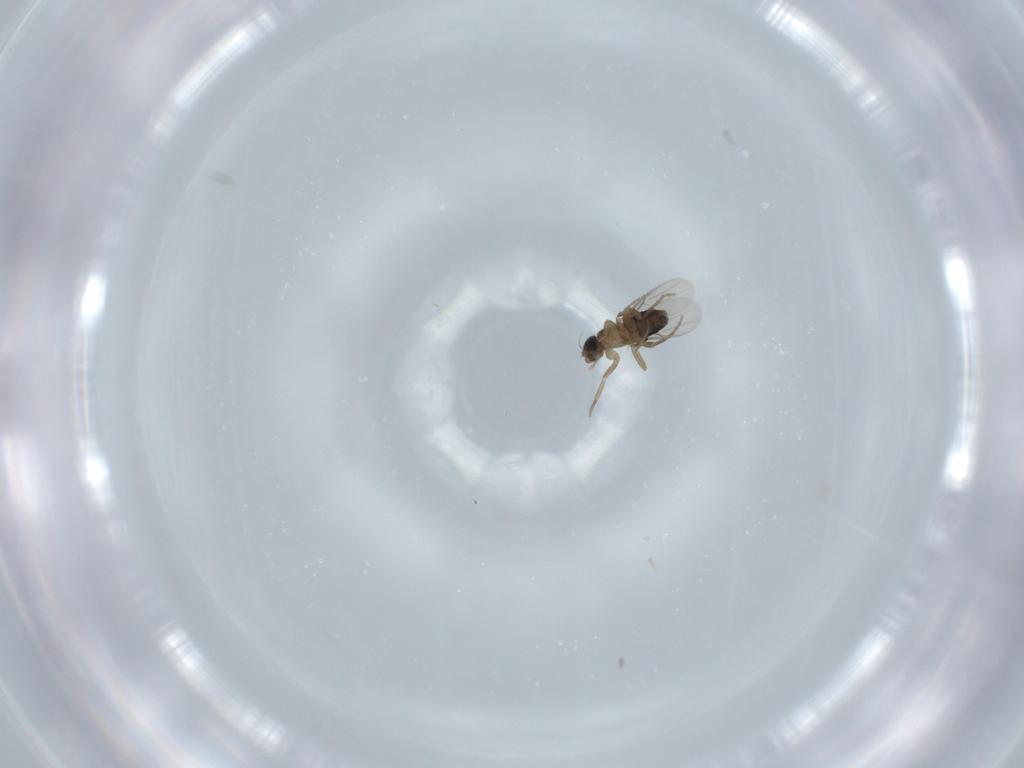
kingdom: Animalia
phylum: Arthropoda
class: Insecta
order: Diptera
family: Phoridae
